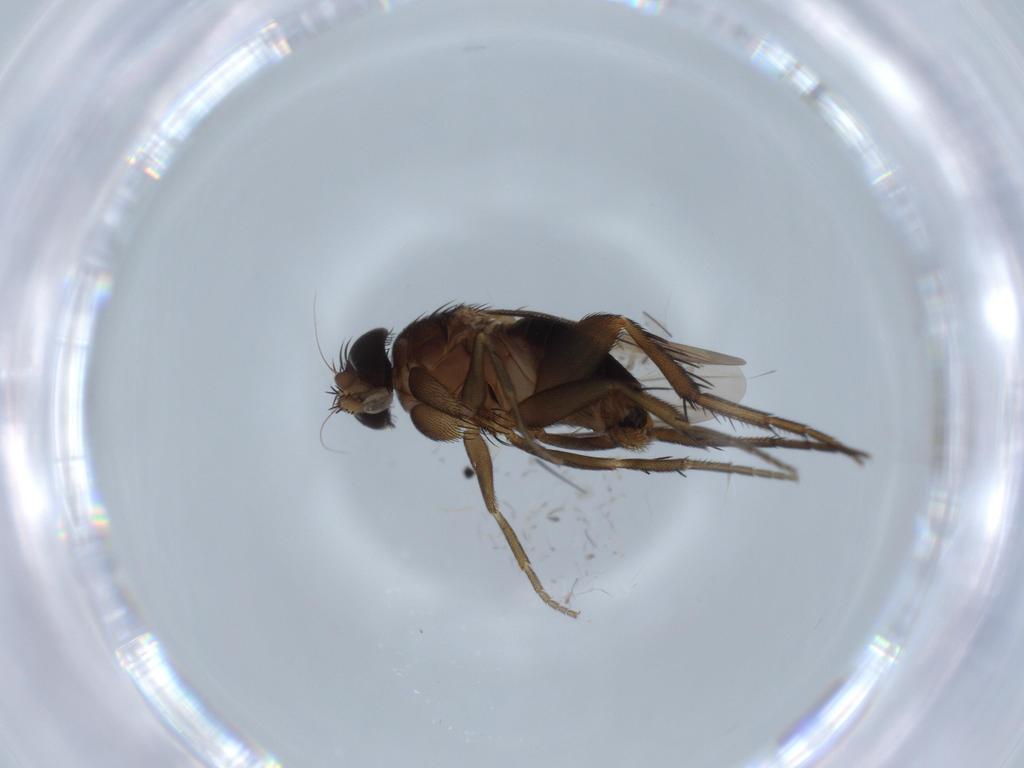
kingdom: Animalia
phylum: Arthropoda
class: Insecta
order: Diptera
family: Phoridae
